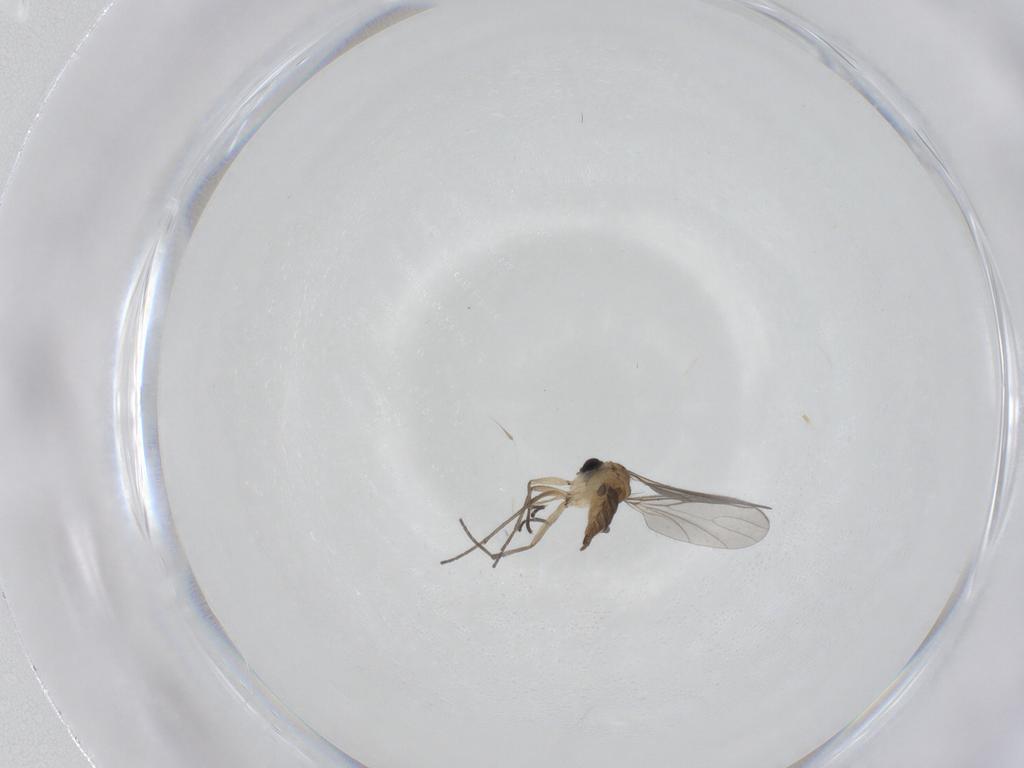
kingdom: Animalia
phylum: Arthropoda
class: Insecta
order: Diptera
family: Sciaridae
